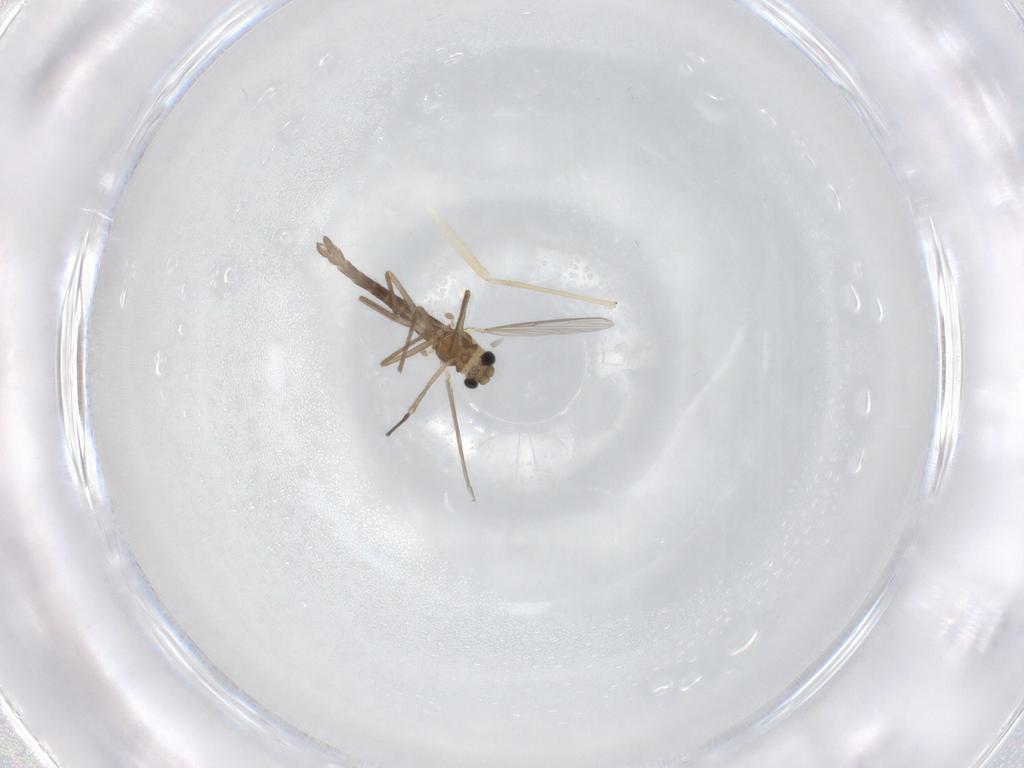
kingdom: Animalia
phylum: Arthropoda
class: Insecta
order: Diptera
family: Chironomidae
